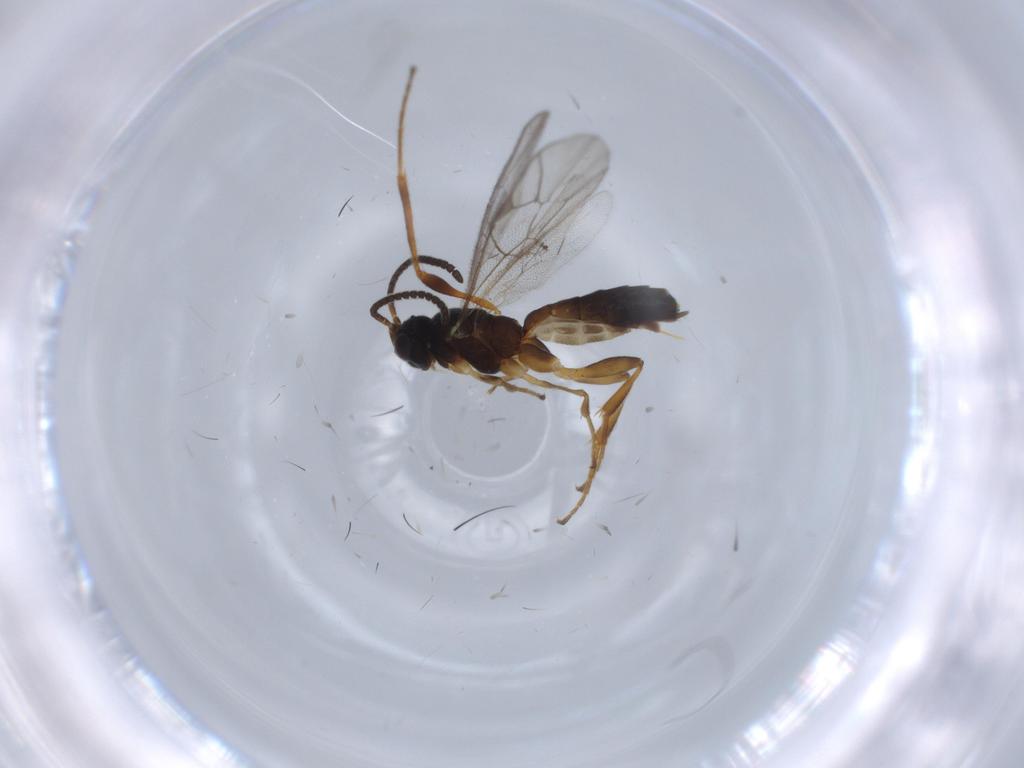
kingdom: Animalia
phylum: Arthropoda
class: Insecta
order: Hymenoptera
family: Ichneumonidae
